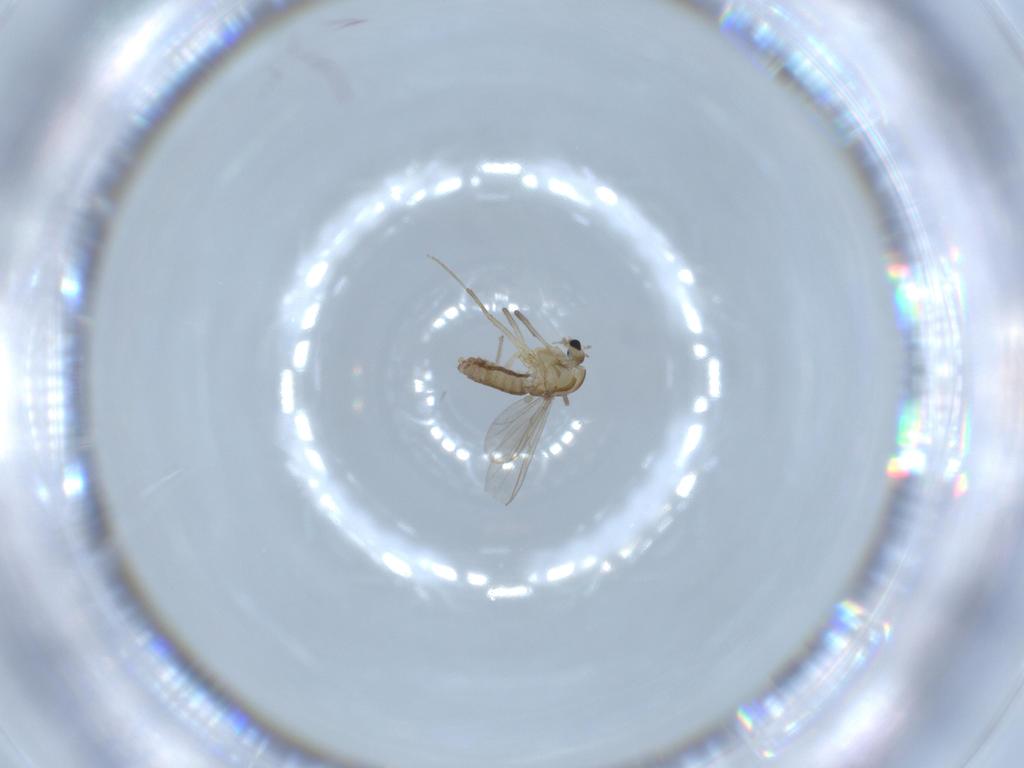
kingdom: Animalia
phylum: Arthropoda
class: Insecta
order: Diptera
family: Chironomidae
